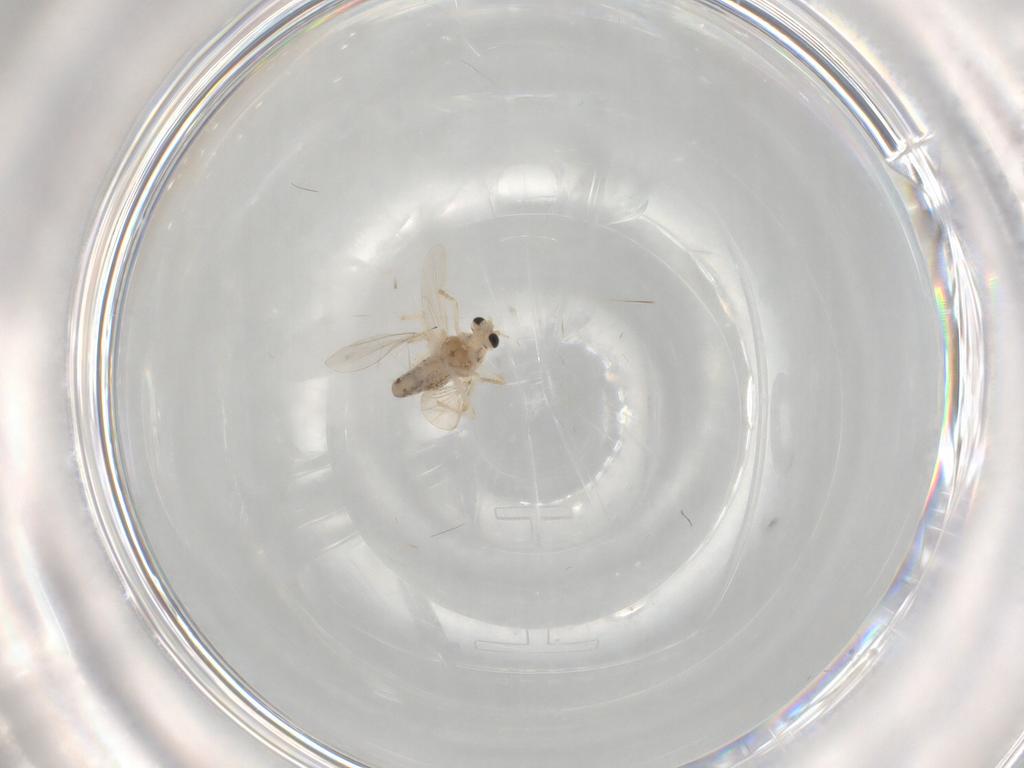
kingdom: Animalia
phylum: Arthropoda
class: Insecta
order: Diptera
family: Chironomidae
